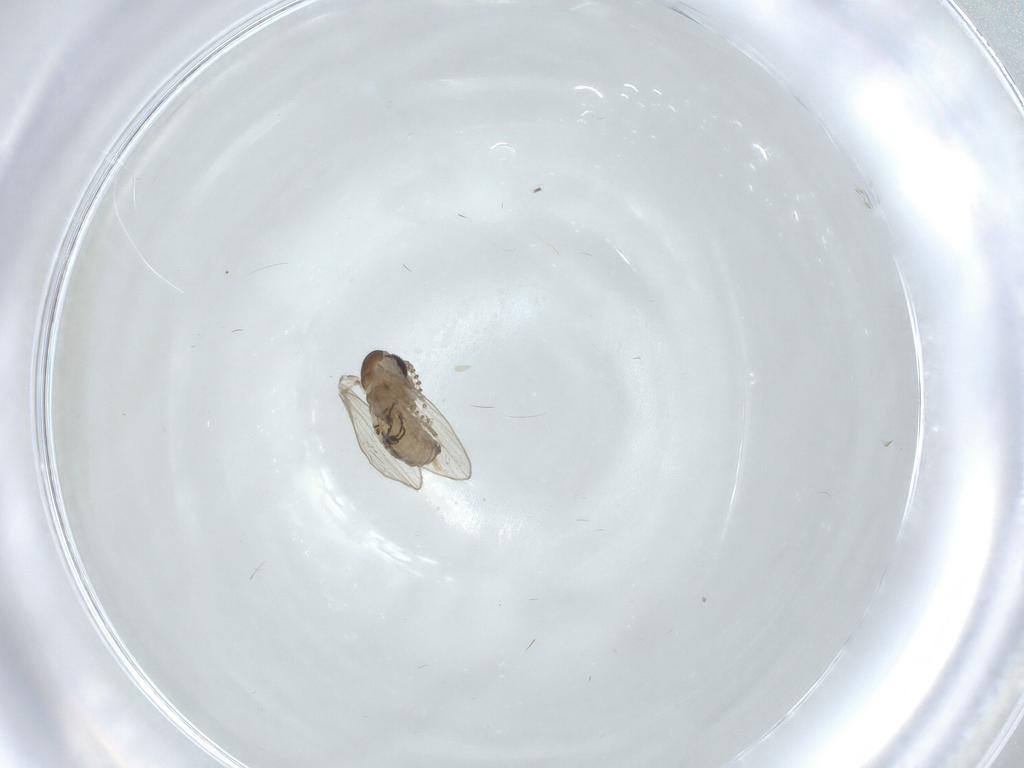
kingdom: Animalia
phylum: Arthropoda
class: Insecta
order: Diptera
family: Psychodidae
